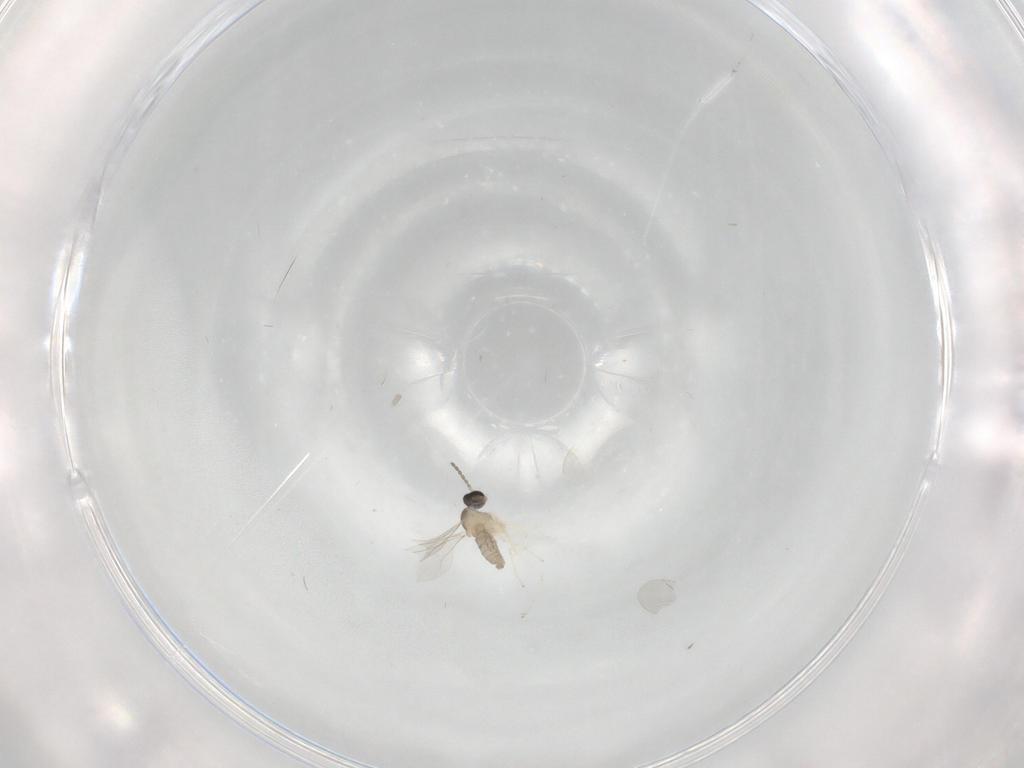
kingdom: Animalia
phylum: Arthropoda
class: Insecta
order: Diptera
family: Cecidomyiidae
